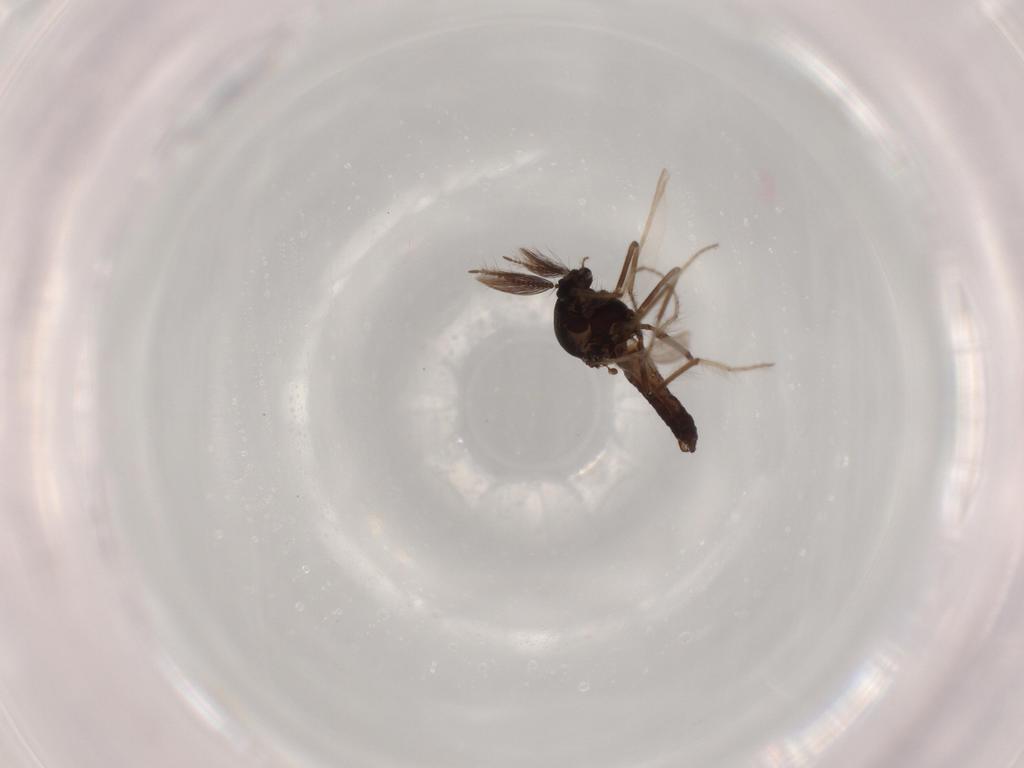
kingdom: Animalia
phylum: Arthropoda
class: Insecta
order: Diptera
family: Chironomidae
